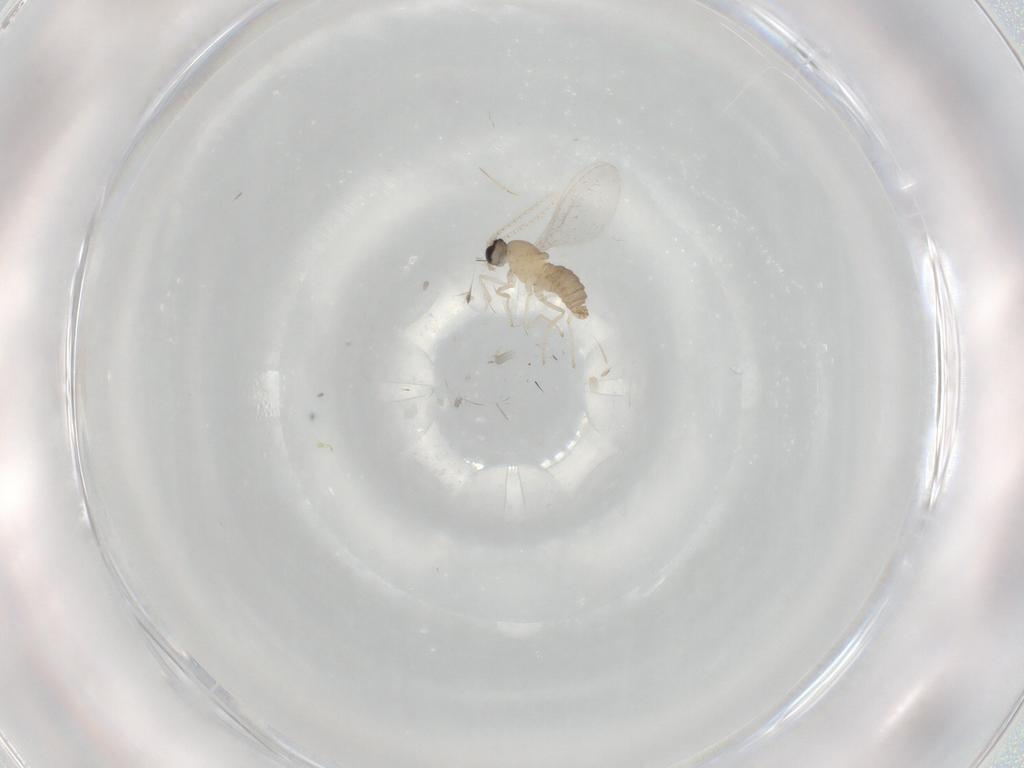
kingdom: Animalia
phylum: Arthropoda
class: Insecta
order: Diptera
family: Cecidomyiidae
